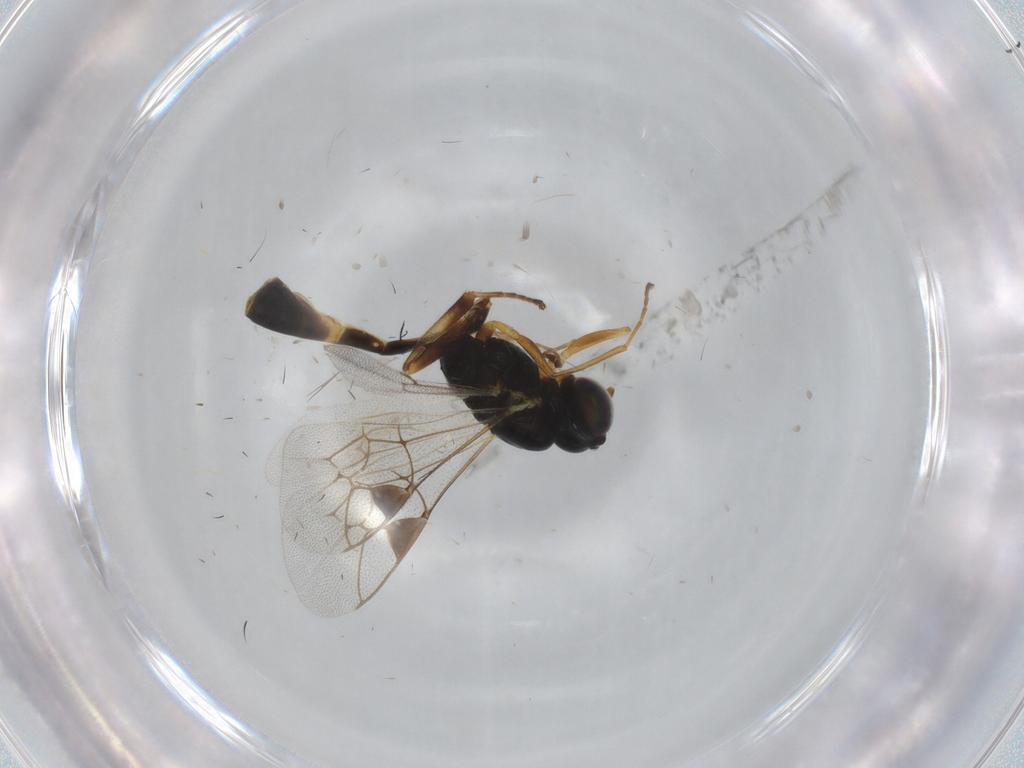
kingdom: Animalia
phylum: Arthropoda
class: Insecta
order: Hymenoptera
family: Ichneumonidae
